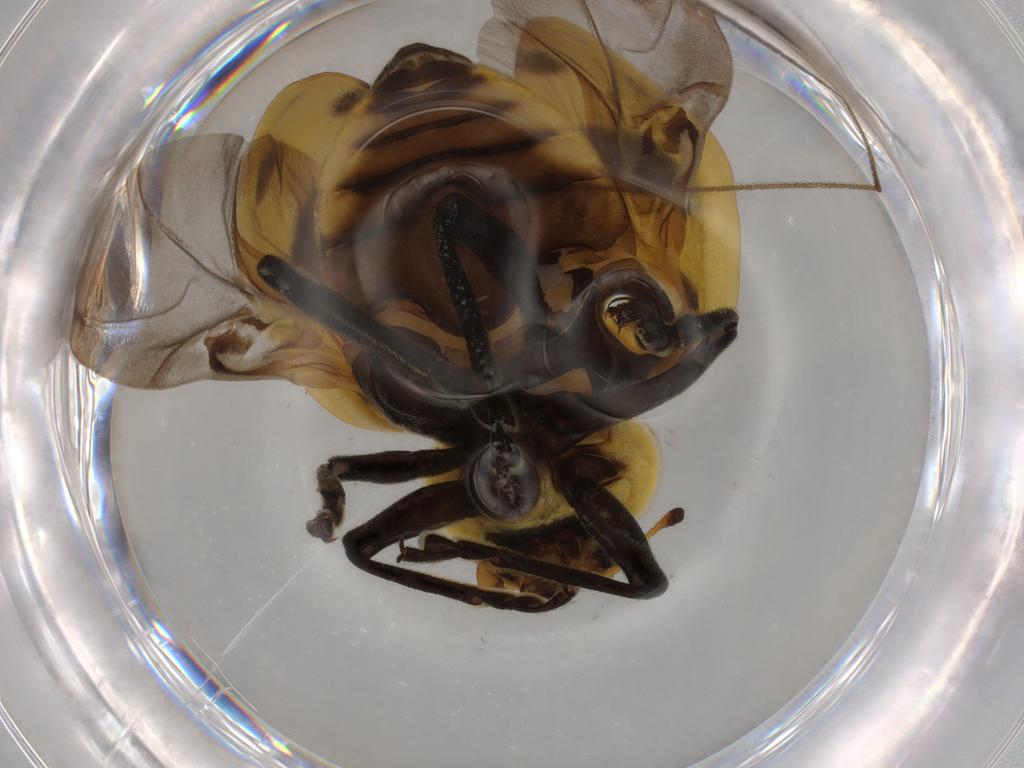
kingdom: Animalia
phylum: Arthropoda
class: Insecta
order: Coleoptera
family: Coccinellidae
